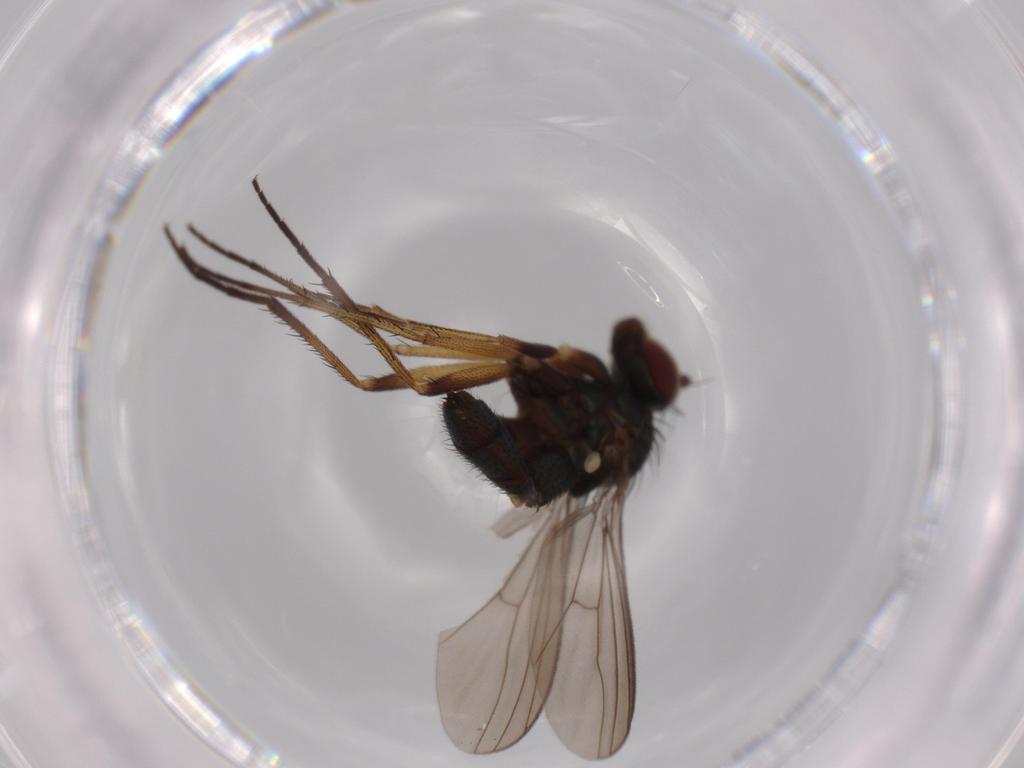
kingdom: Animalia
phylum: Arthropoda
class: Insecta
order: Diptera
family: Dolichopodidae
